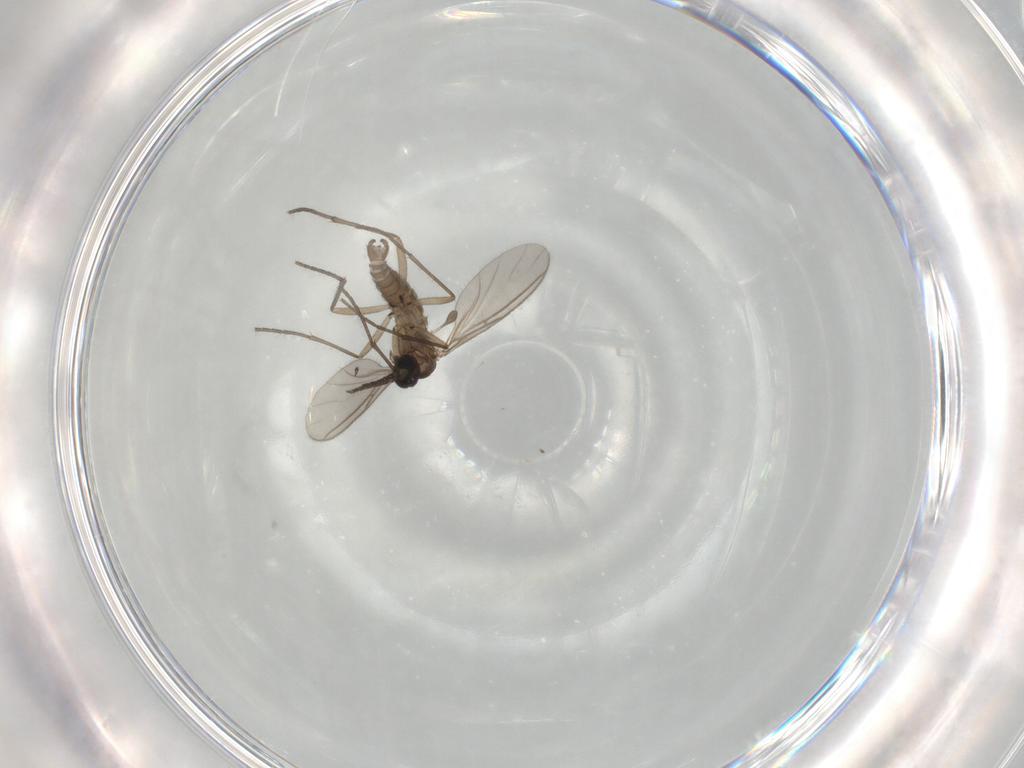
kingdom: Animalia
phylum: Arthropoda
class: Insecta
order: Diptera
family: Sciaridae
